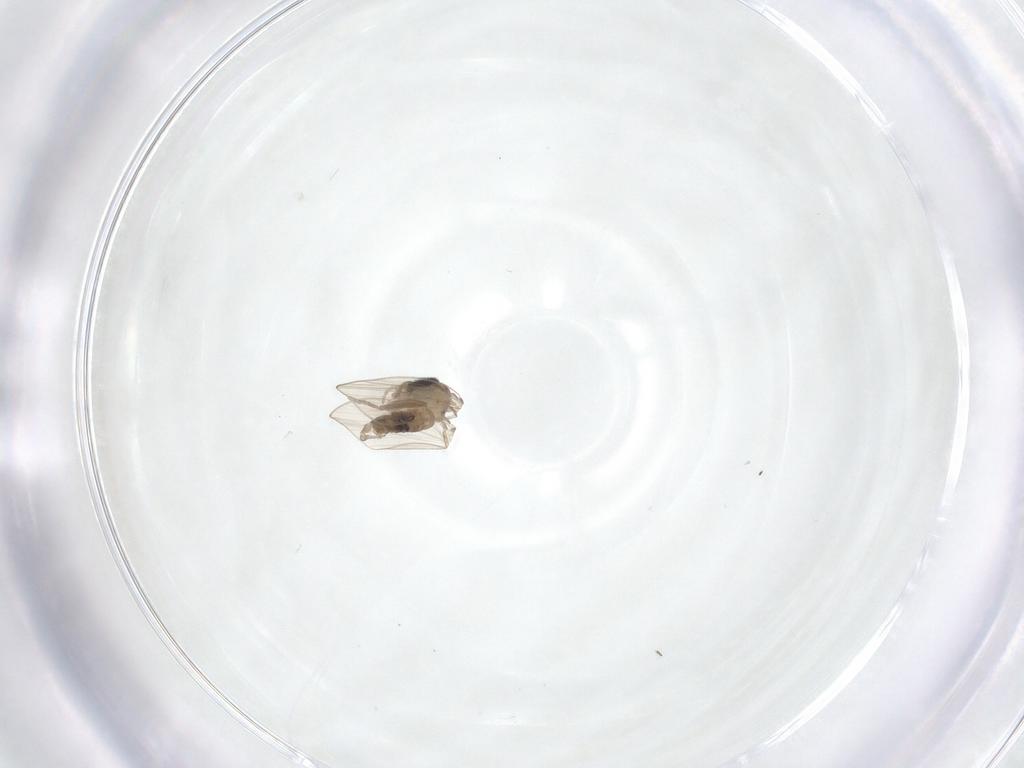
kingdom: Animalia
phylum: Arthropoda
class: Insecta
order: Diptera
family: Psychodidae
